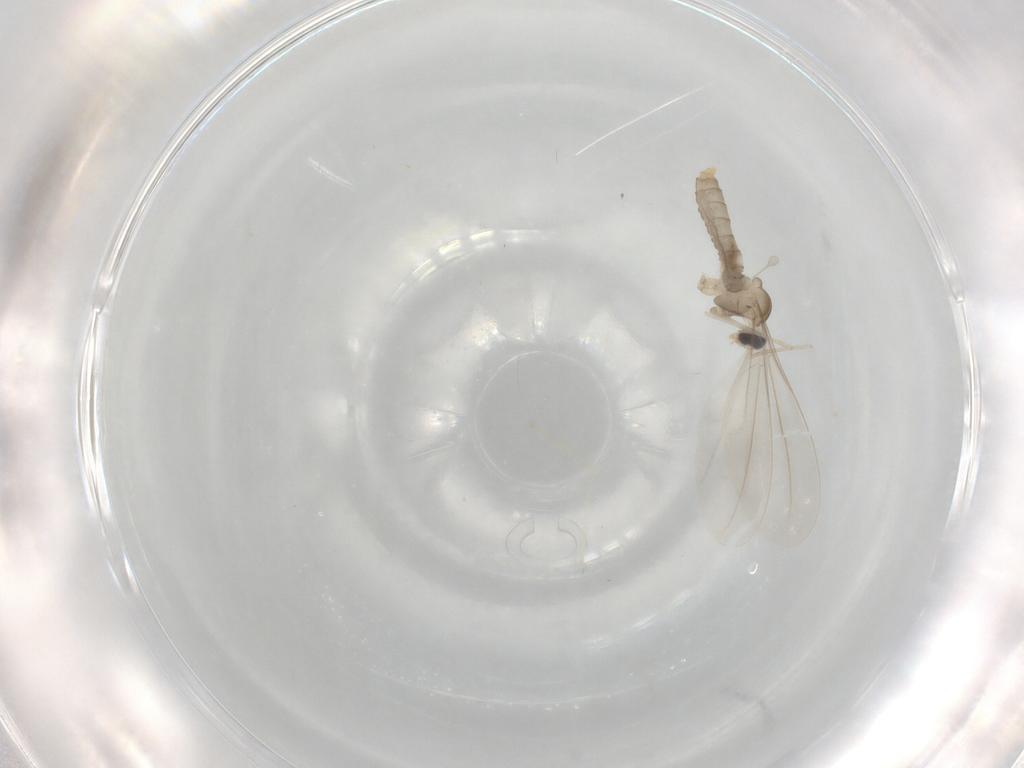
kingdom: Animalia
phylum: Arthropoda
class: Insecta
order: Diptera
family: Cecidomyiidae
